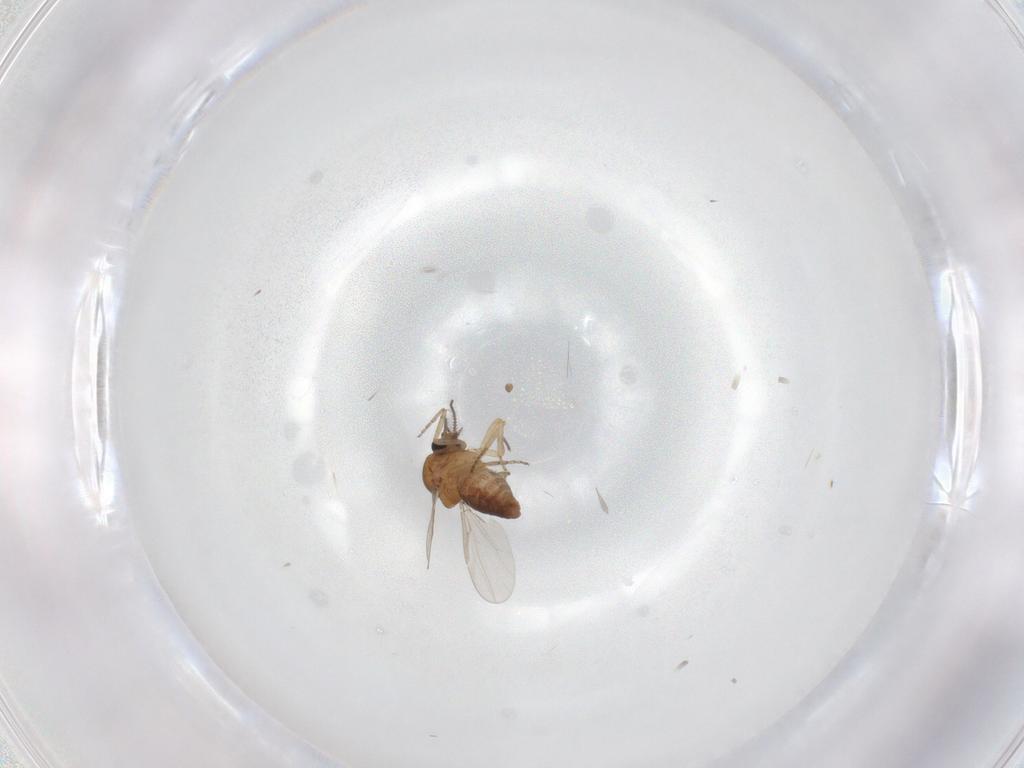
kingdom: Animalia
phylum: Arthropoda
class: Insecta
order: Diptera
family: Ceratopogonidae
